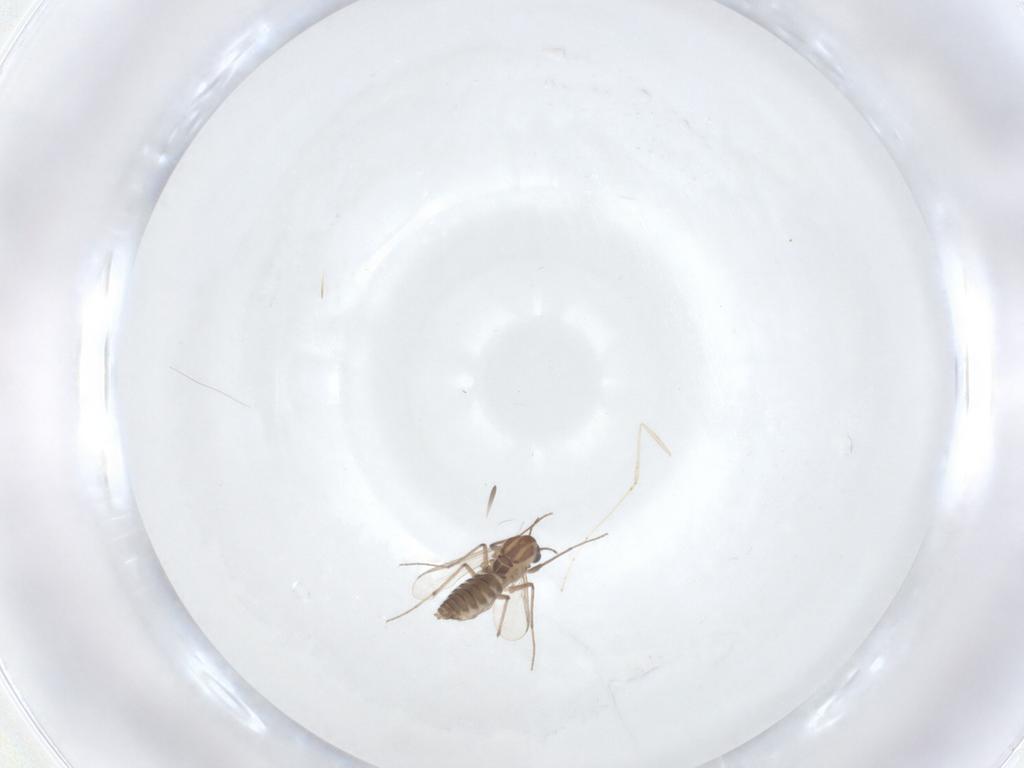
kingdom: Animalia
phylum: Arthropoda
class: Insecta
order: Diptera
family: Chironomidae
